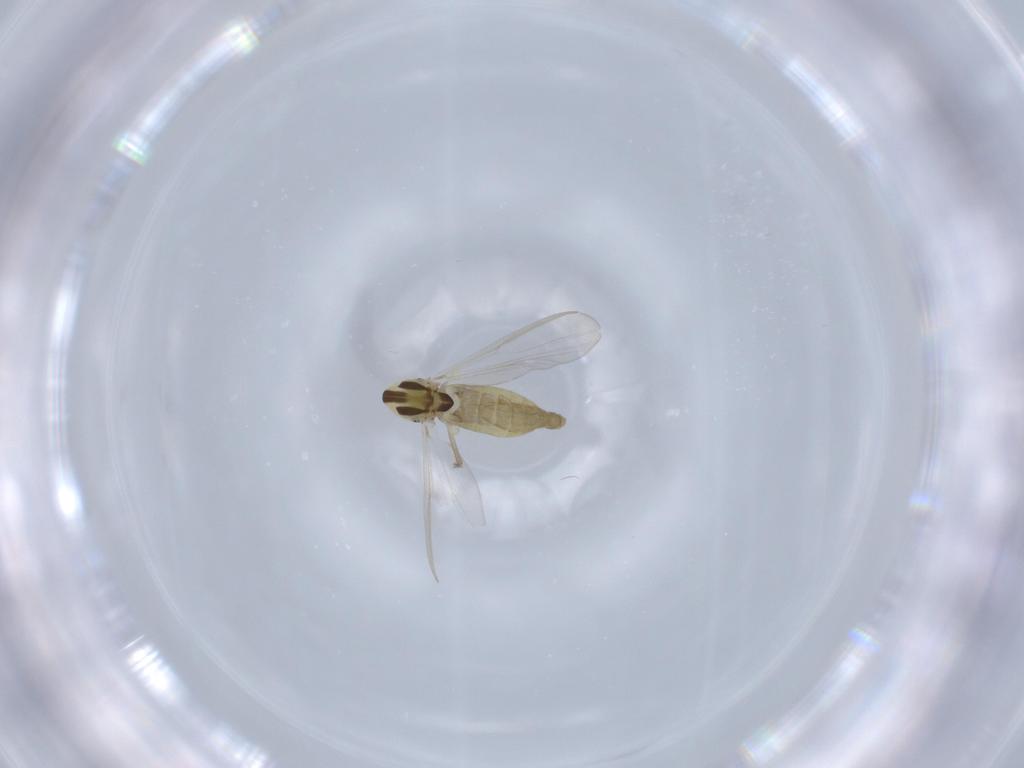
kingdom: Animalia
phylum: Arthropoda
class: Insecta
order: Diptera
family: Chironomidae
